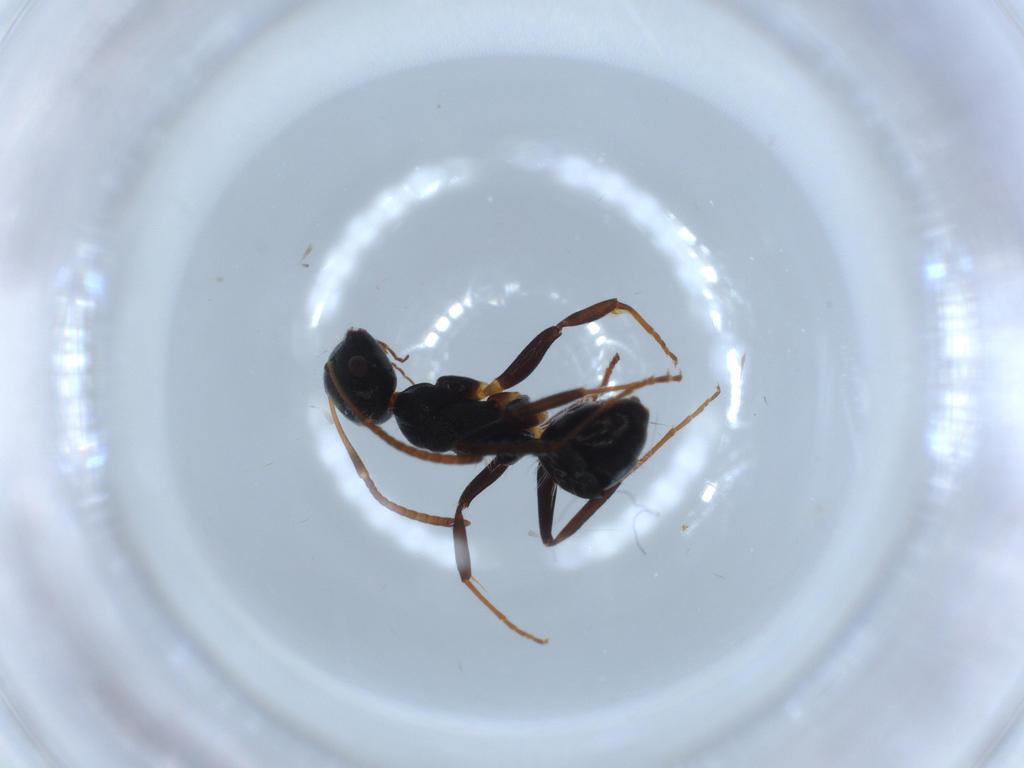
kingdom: Animalia
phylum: Arthropoda
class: Insecta
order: Hymenoptera
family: Formicidae
